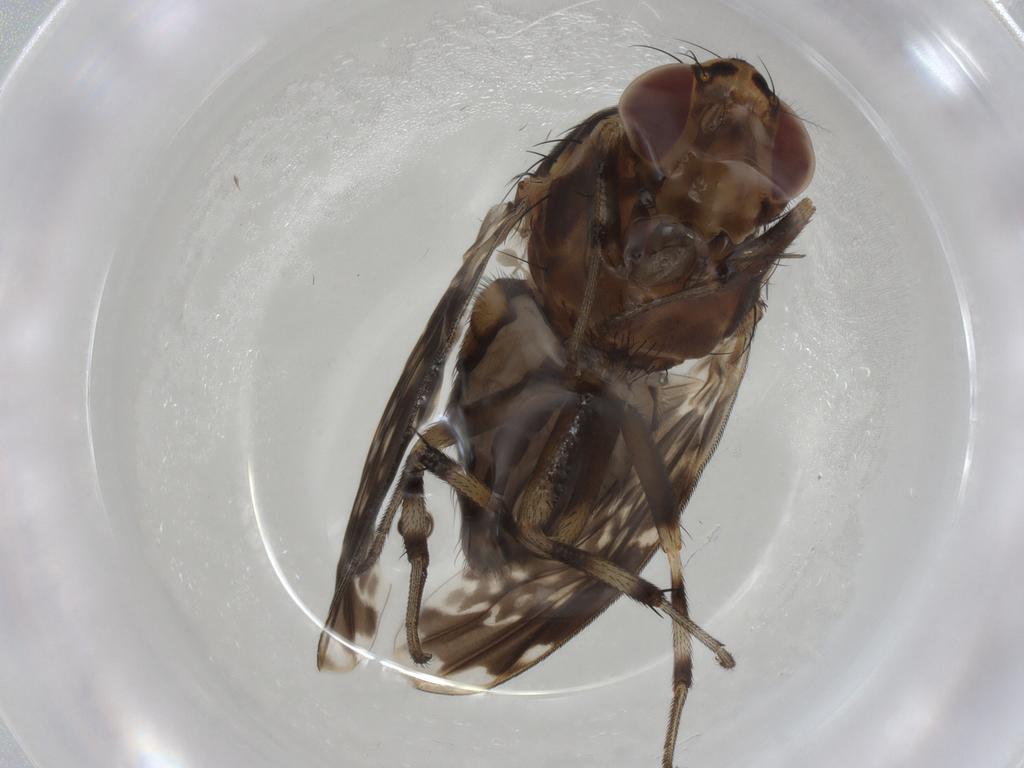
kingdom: Animalia
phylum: Arthropoda
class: Insecta
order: Diptera
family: Cecidomyiidae
